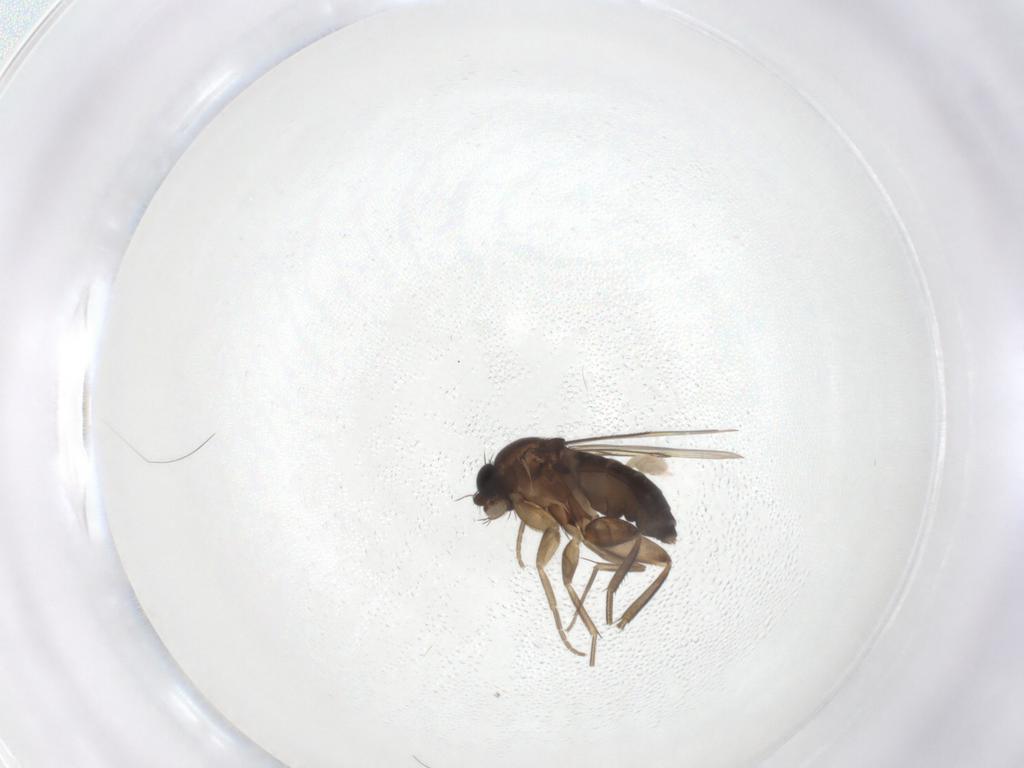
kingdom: Animalia
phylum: Arthropoda
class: Insecta
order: Diptera
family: Phoridae
